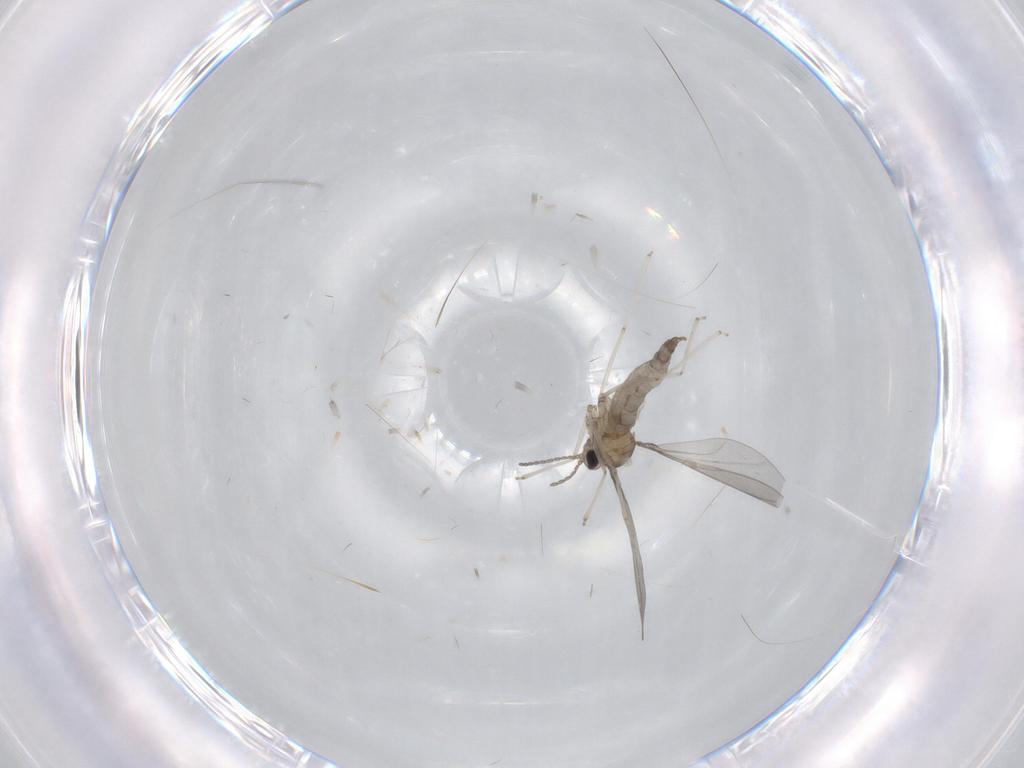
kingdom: Animalia
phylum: Arthropoda
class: Insecta
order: Diptera
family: Cecidomyiidae
